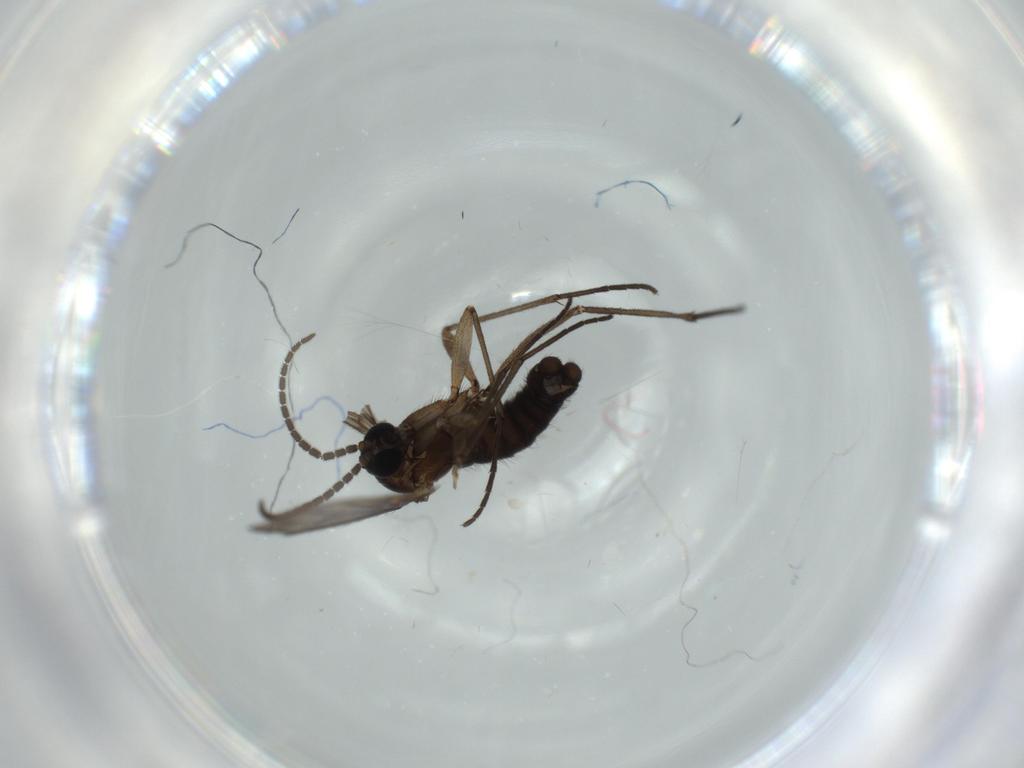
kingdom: Animalia
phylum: Arthropoda
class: Insecta
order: Diptera
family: Sciaridae
